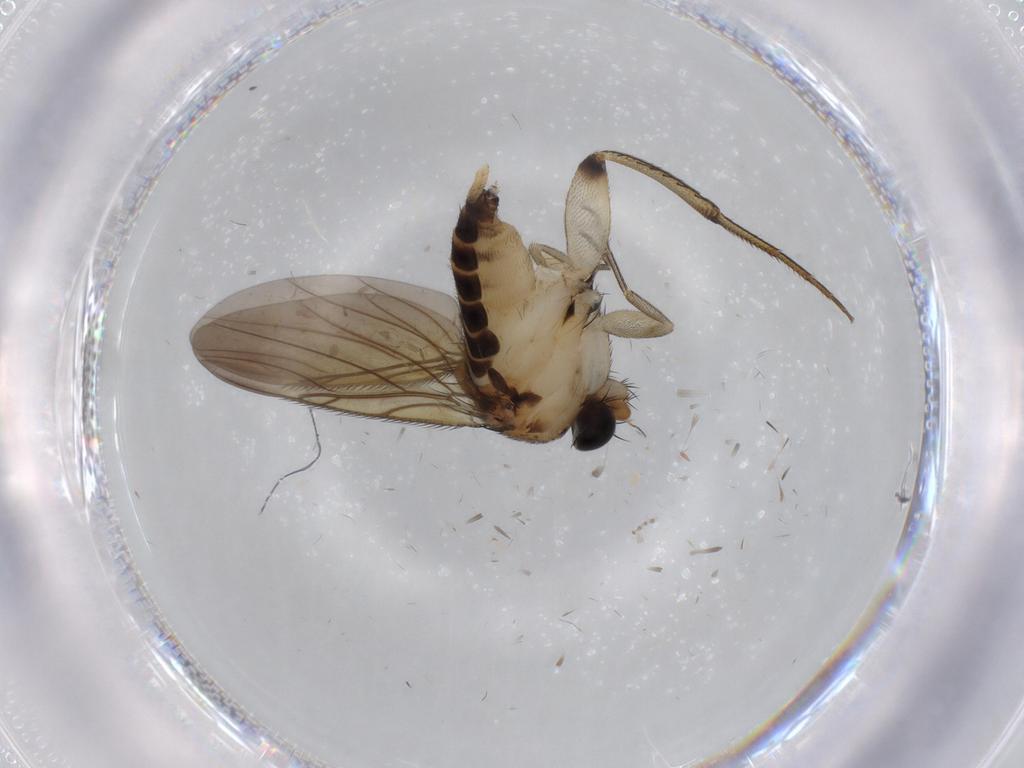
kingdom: Animalia
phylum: Arthropoda
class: Insecta
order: Diptera
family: Phoridae
